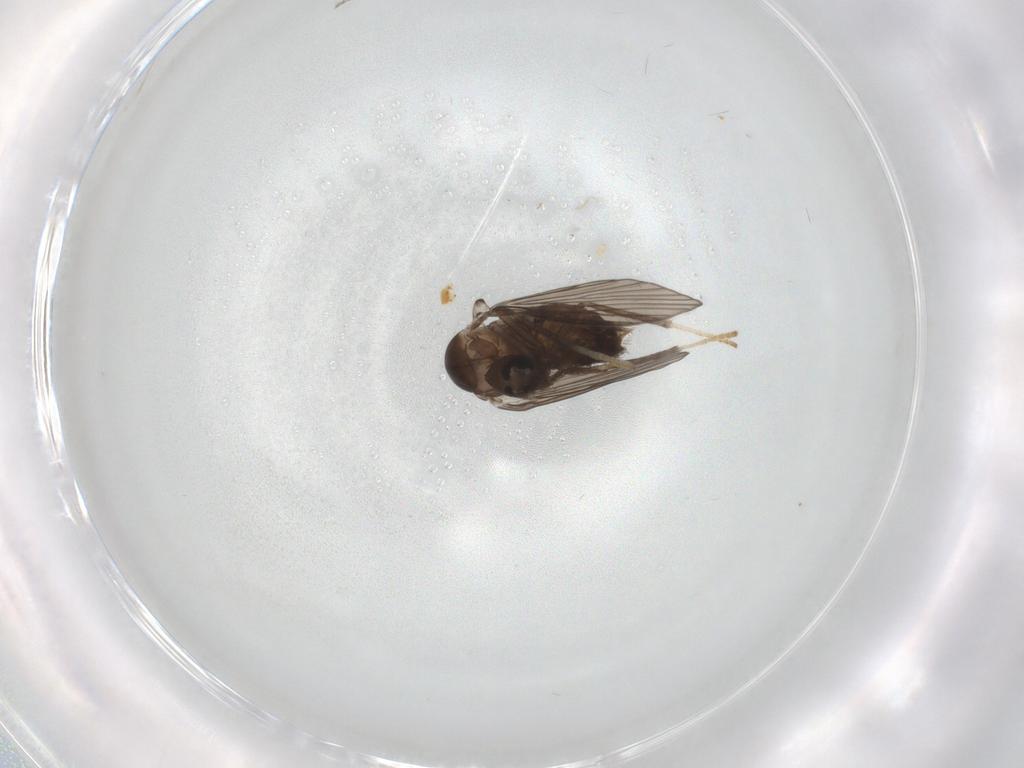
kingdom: Animalia
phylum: Arthropoda
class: Insecta
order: Diptera
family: Psychodidae
